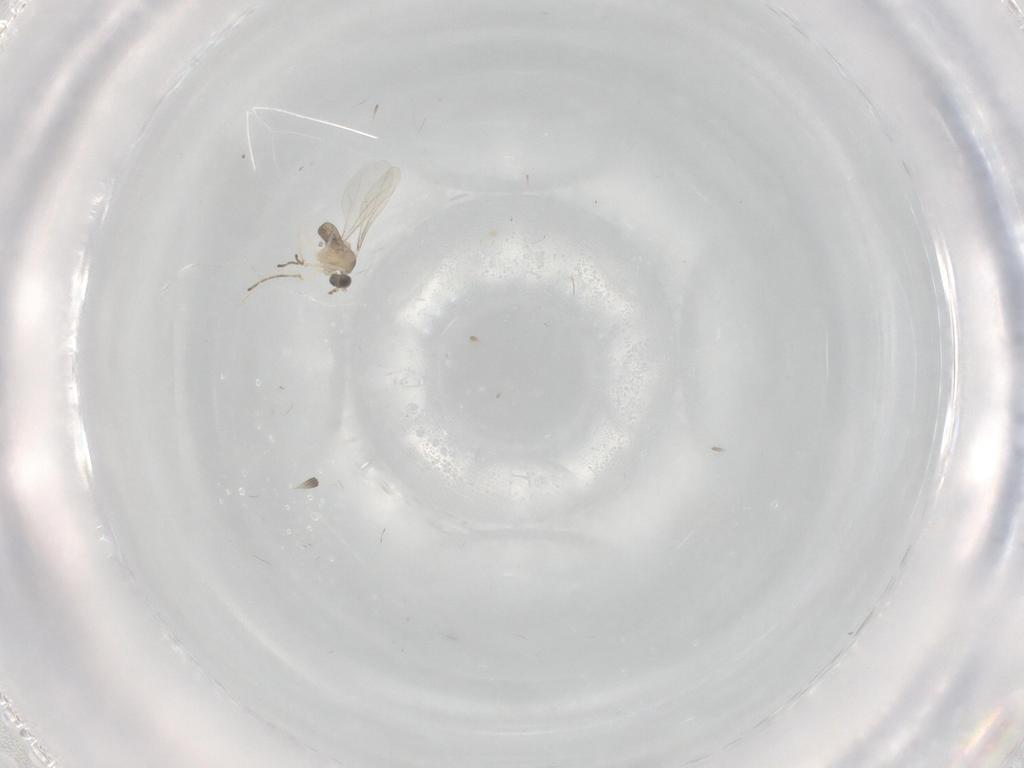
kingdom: Animalia
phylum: Arthropoda
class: Insecta
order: Diptera
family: Cecidomyiidae
